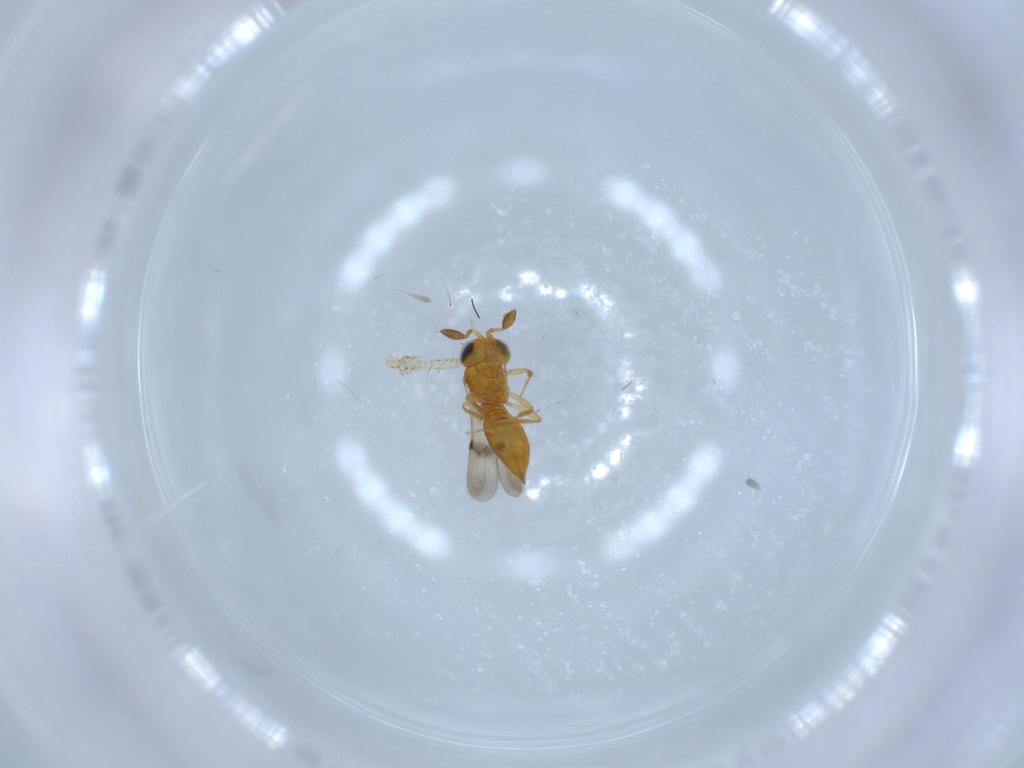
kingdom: Animalia
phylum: Arthropoda
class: Insecta
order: Hymenoptera
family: Scelionidae
